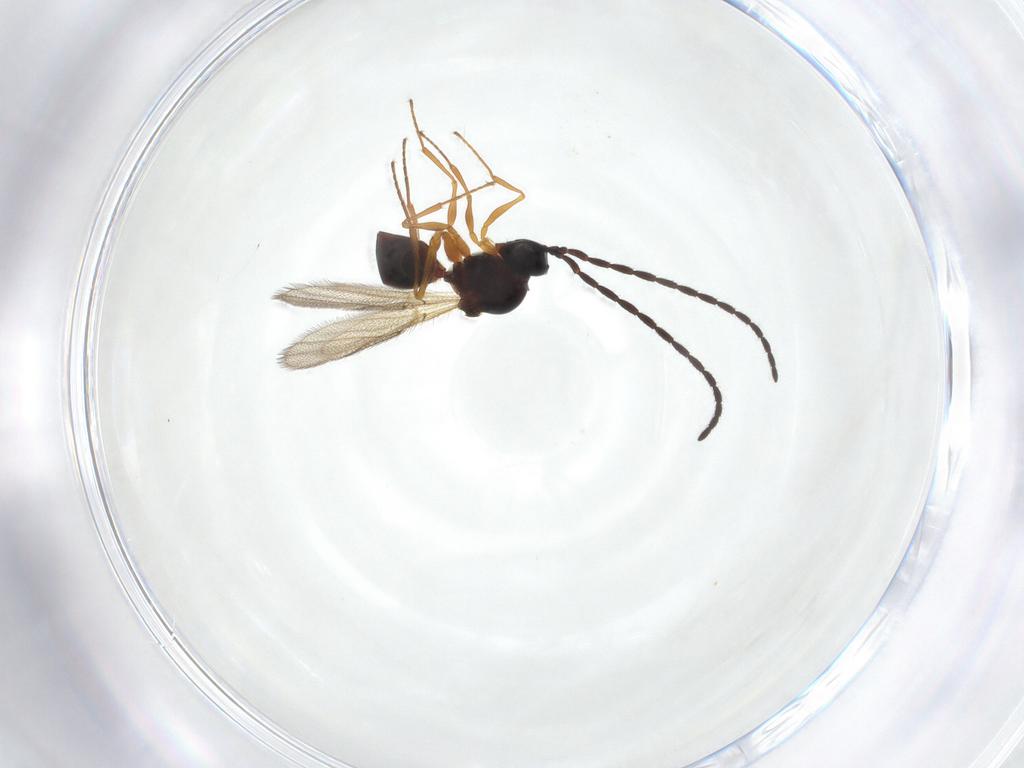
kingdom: Animalia
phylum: Arthropoda
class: Insecta
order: Hymenoptera
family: Figitidae
